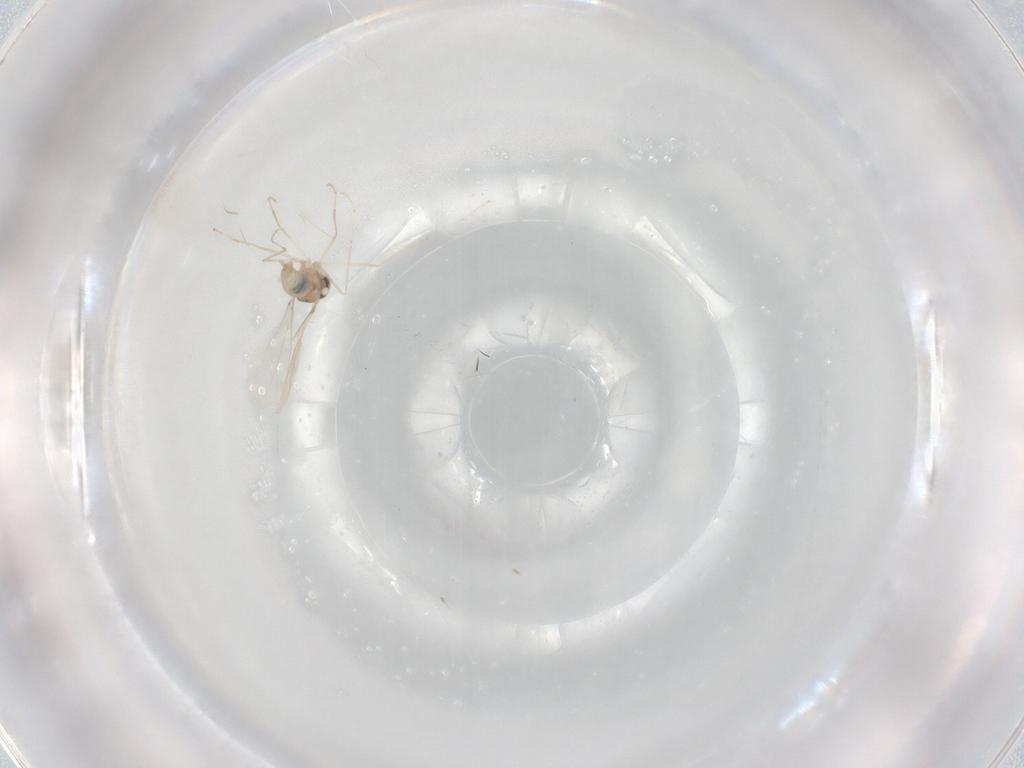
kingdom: Animalia
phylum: Arthropoda
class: Insecta
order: Diptera
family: Cecidomyiidae
